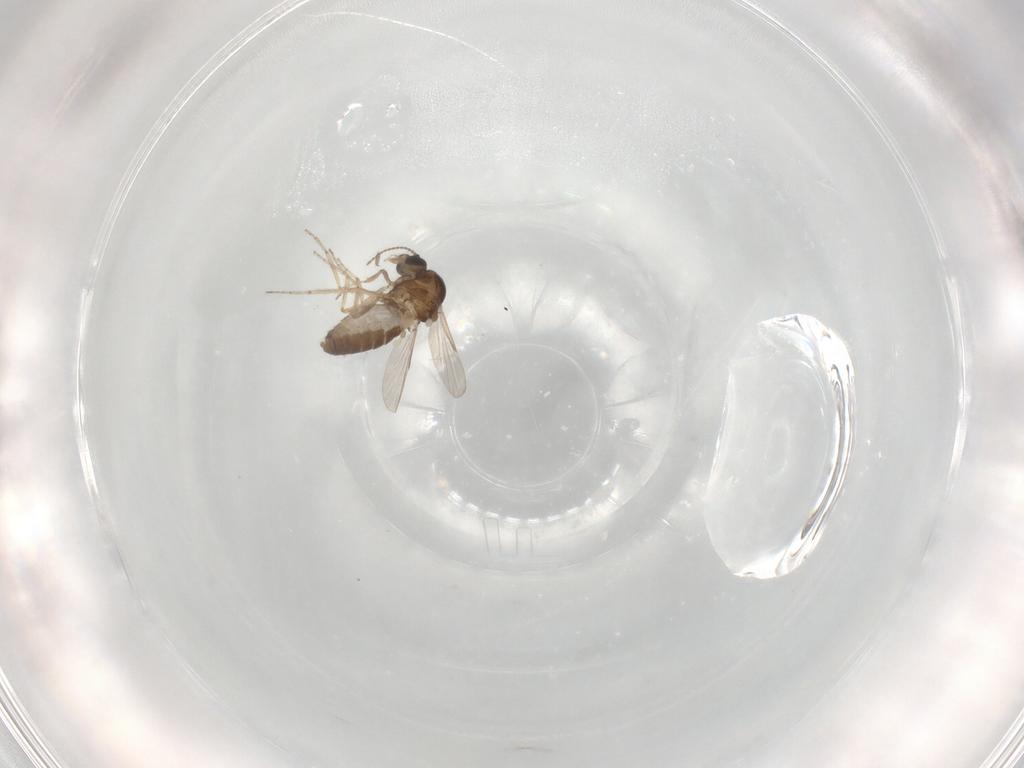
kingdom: Animalia
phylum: Arthropoda
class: Insecta
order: Diptera
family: Ceratopogonidae
